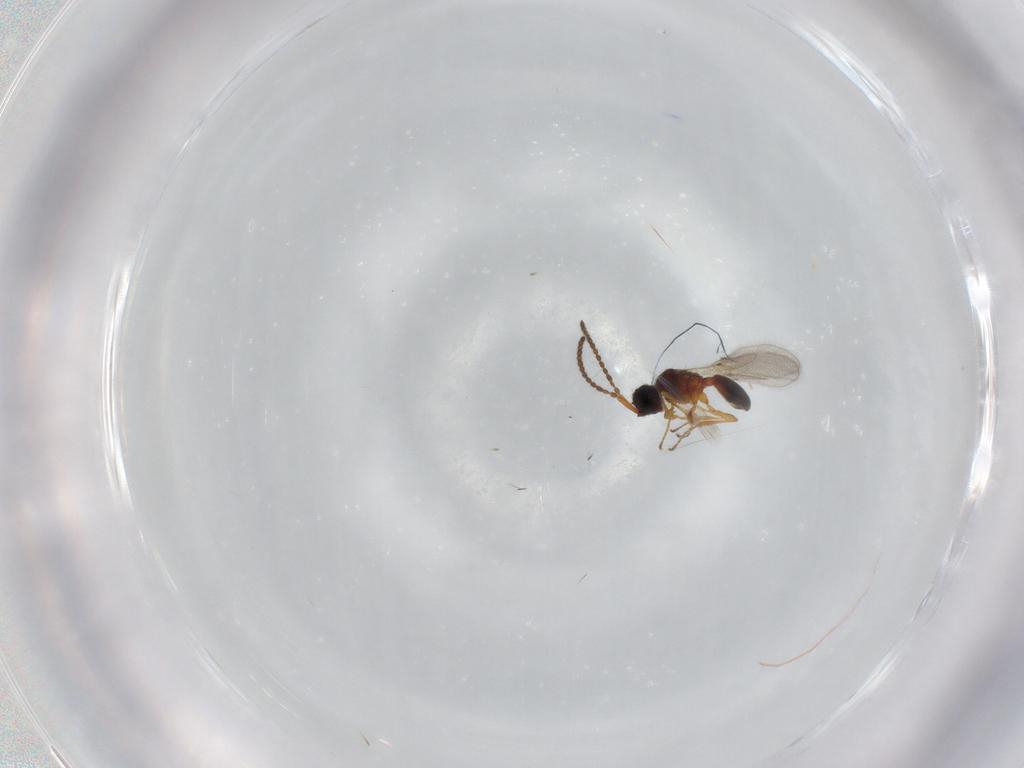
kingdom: Animalia
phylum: Arthropoda
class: Insecta
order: Hymenoptera
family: Diapriidae
